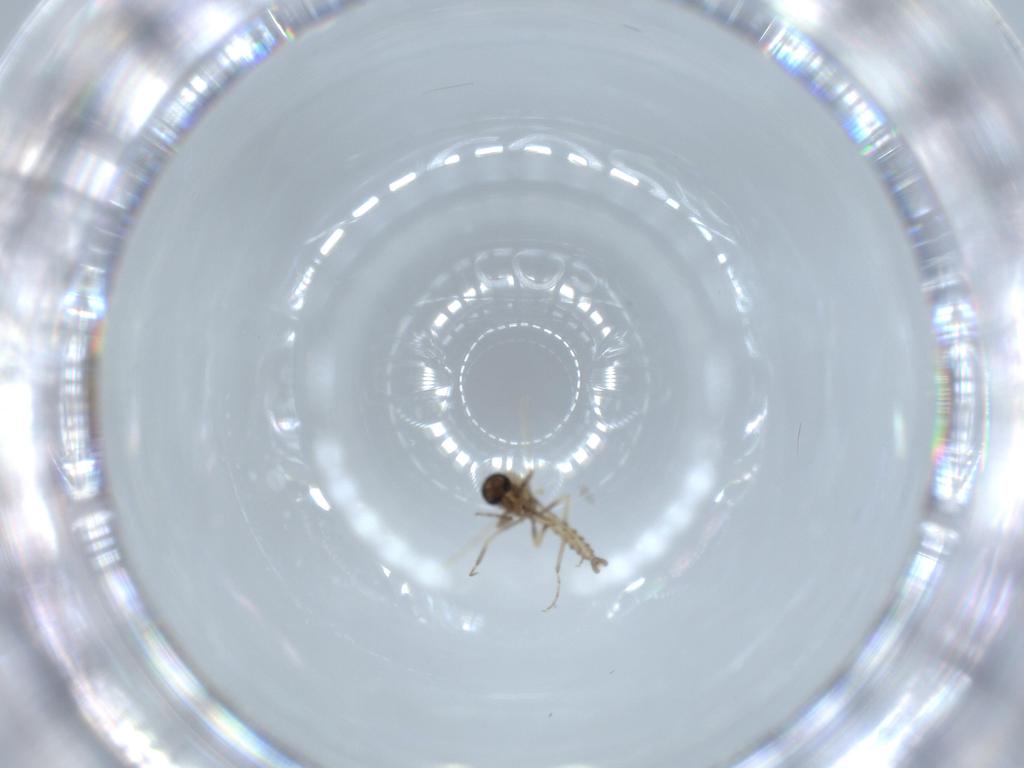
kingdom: Animalia
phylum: Arthropoda
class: Insecta
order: Diptera
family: Ceratopogonidae
